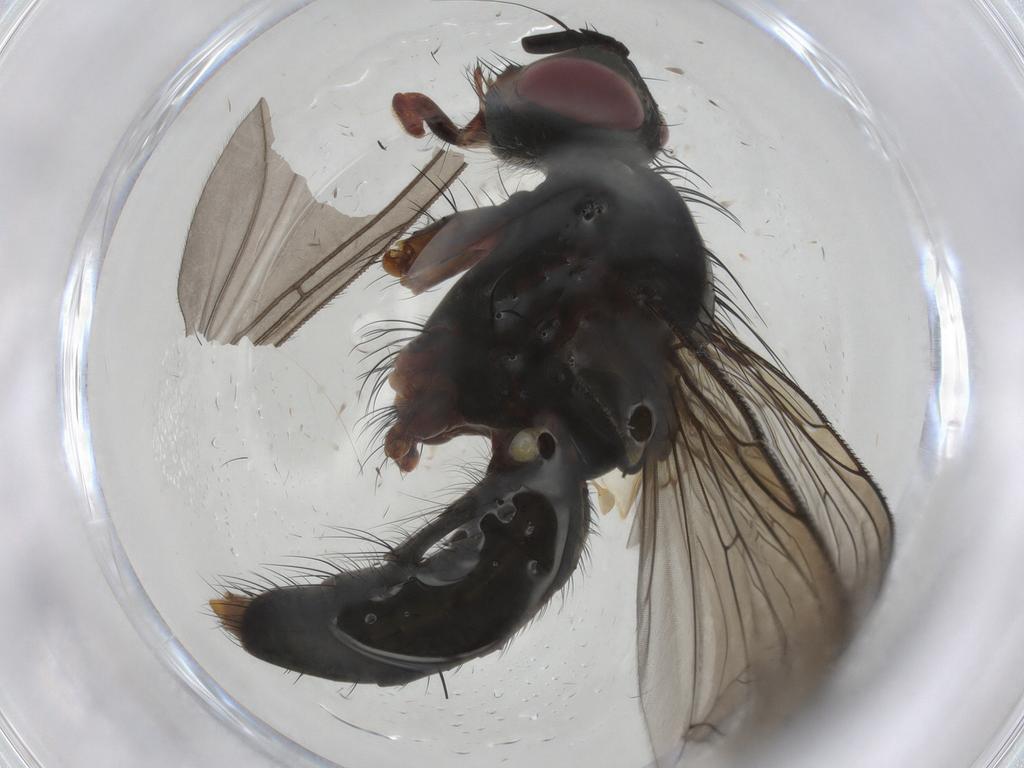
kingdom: Animalia
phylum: Arthropoda
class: Insecta
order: Diptera
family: Tachinidae
